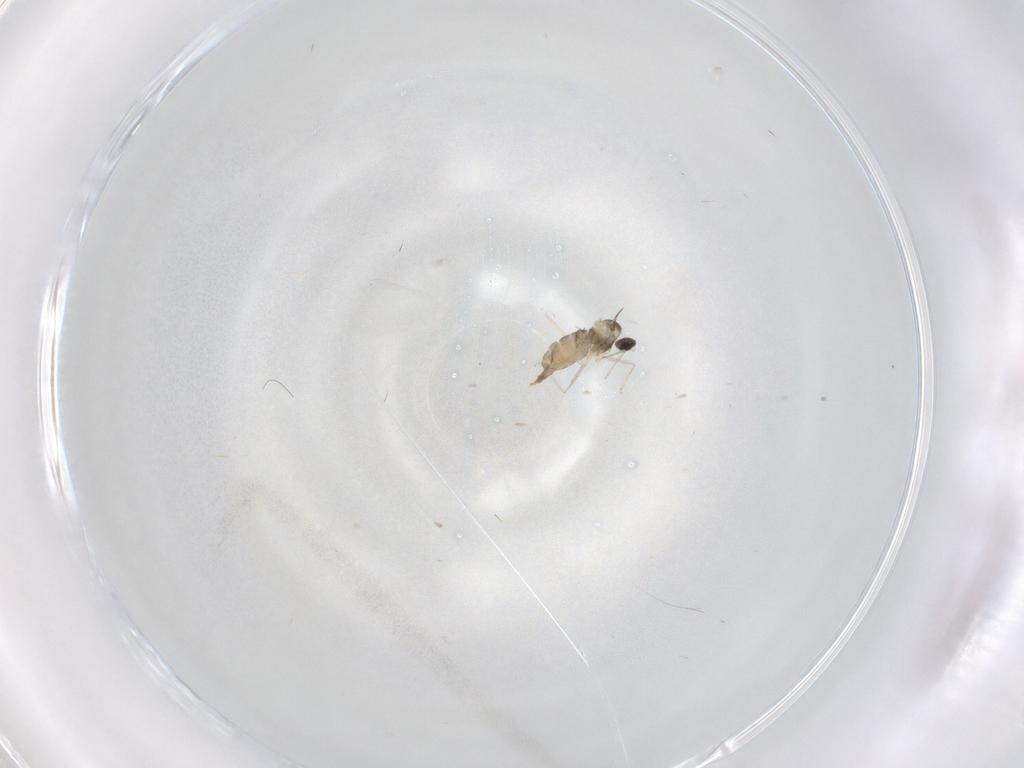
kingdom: Animalia
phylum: Arthropoda
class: Insecta
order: Diptera
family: Cecidomyiidae
